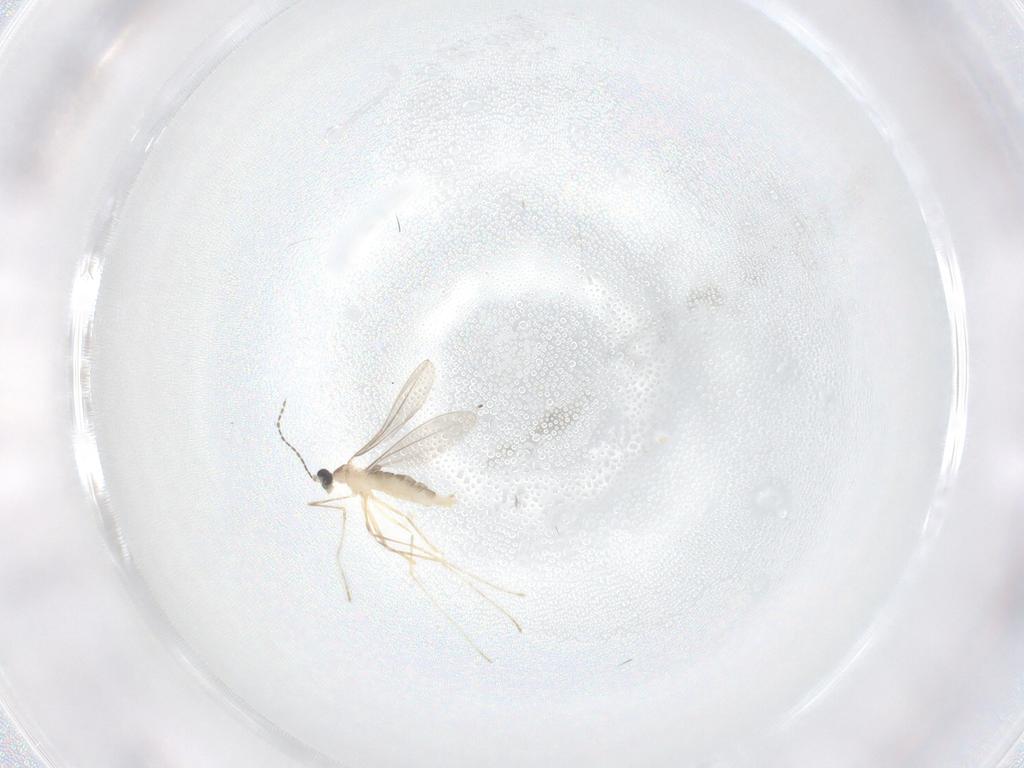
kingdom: Animalia
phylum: Arthropoda
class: Insecta
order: Diptera
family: Cecidomyiidae
